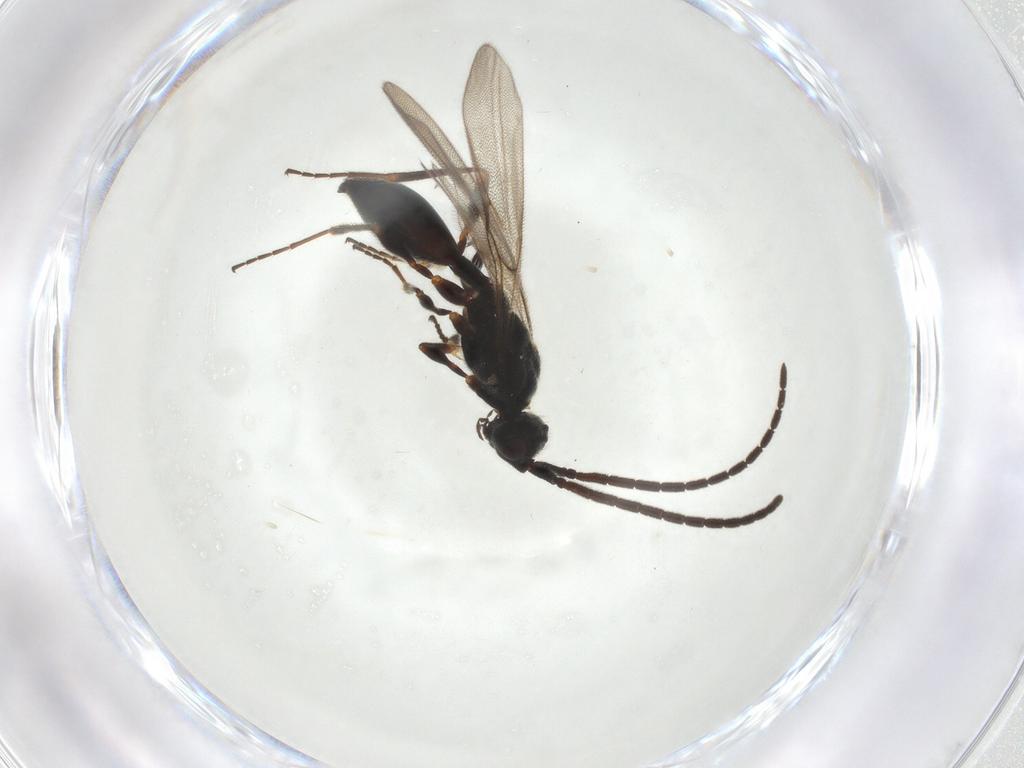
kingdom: Animalia
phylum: Arthropoda
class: Insecta
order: Hymenoptera
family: Diapriidae
